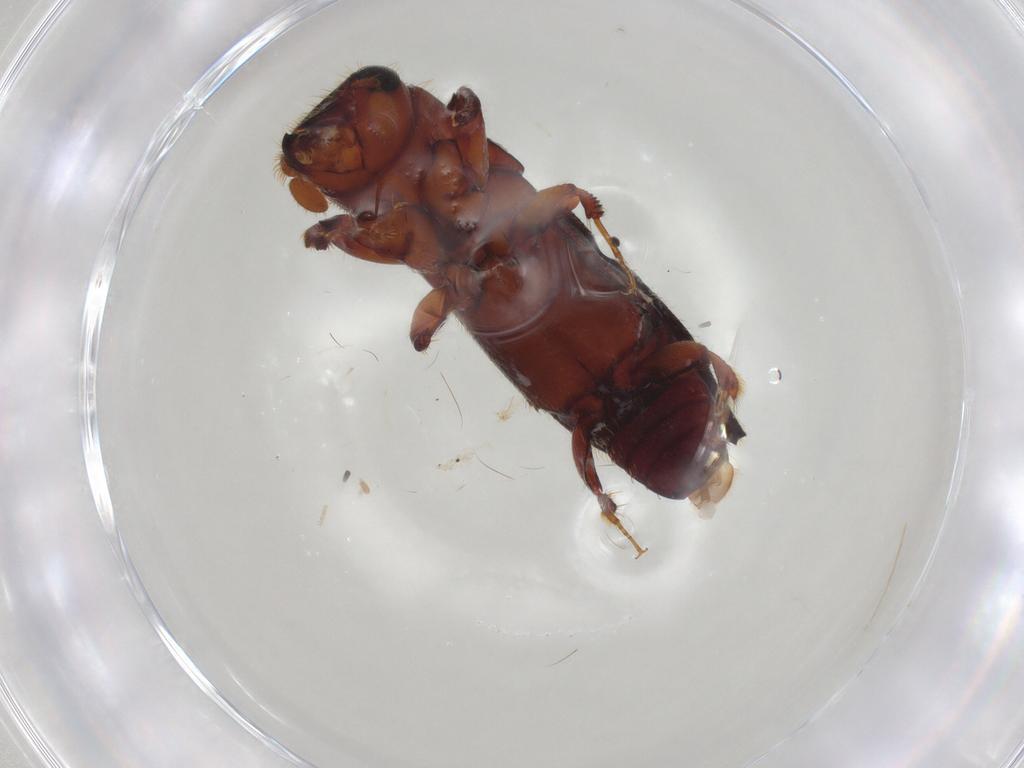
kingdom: Animalia
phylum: Arthropoda
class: Insecta
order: Coleoptera
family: Curculionidae
